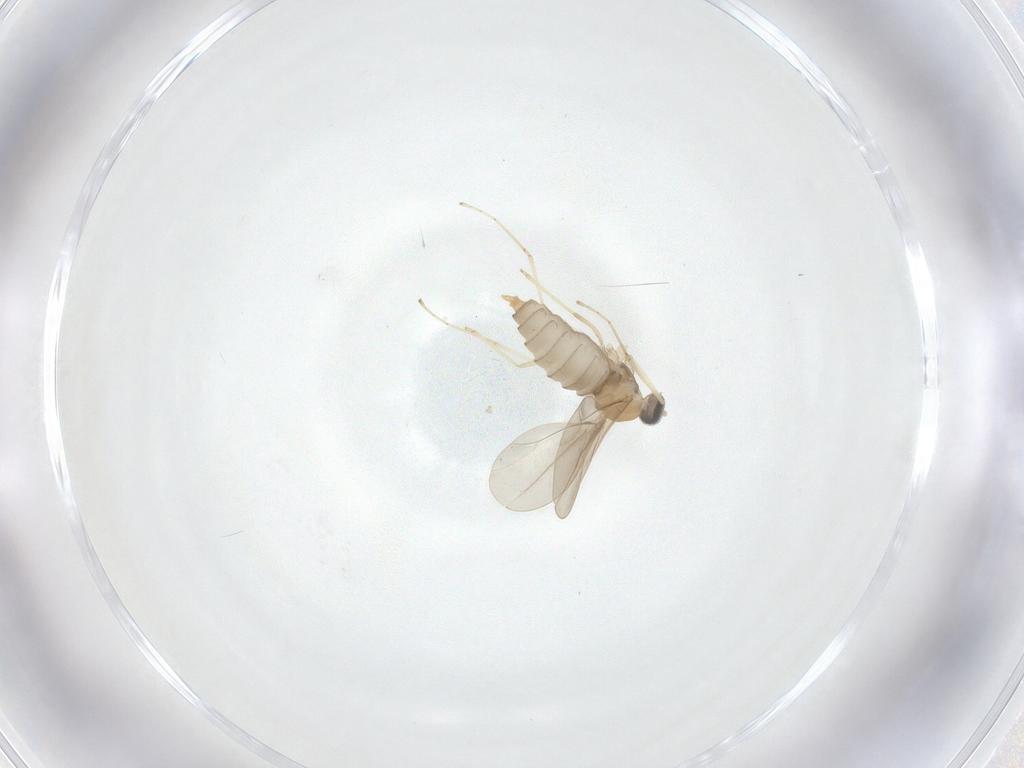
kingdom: Animalia
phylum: Arthropoda
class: Insecta
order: Diptera
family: Cecidomyiidae
